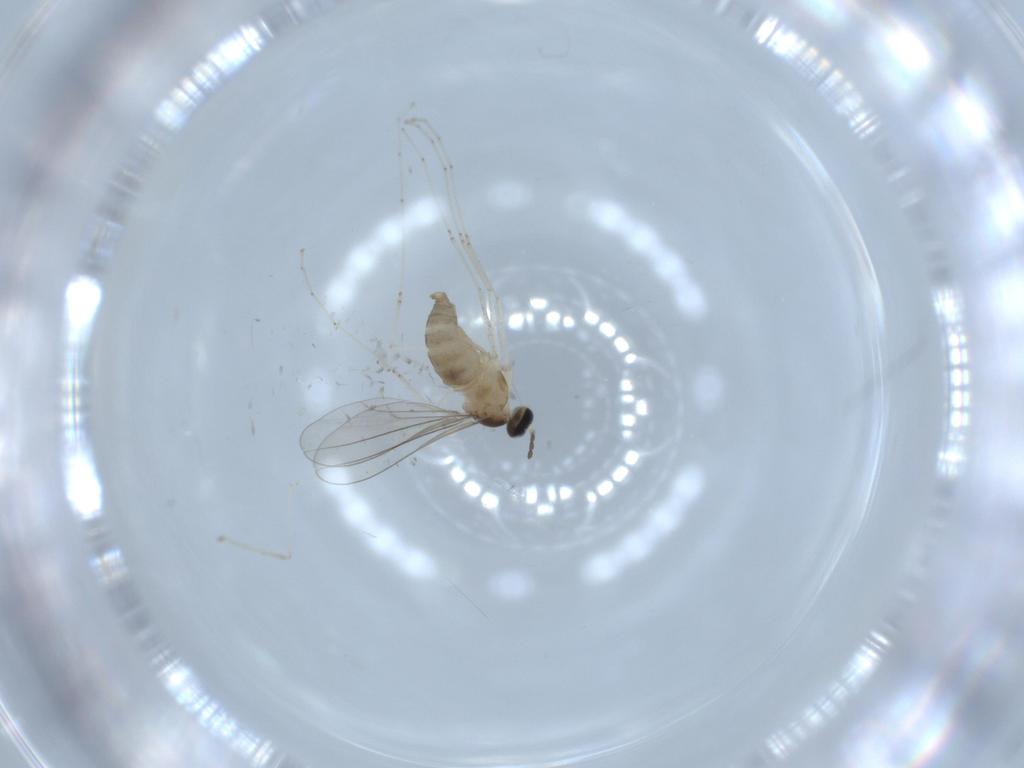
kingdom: Animalia
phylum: Arthropoda
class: Insecta
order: Diptera
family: Cecidomyiidae
